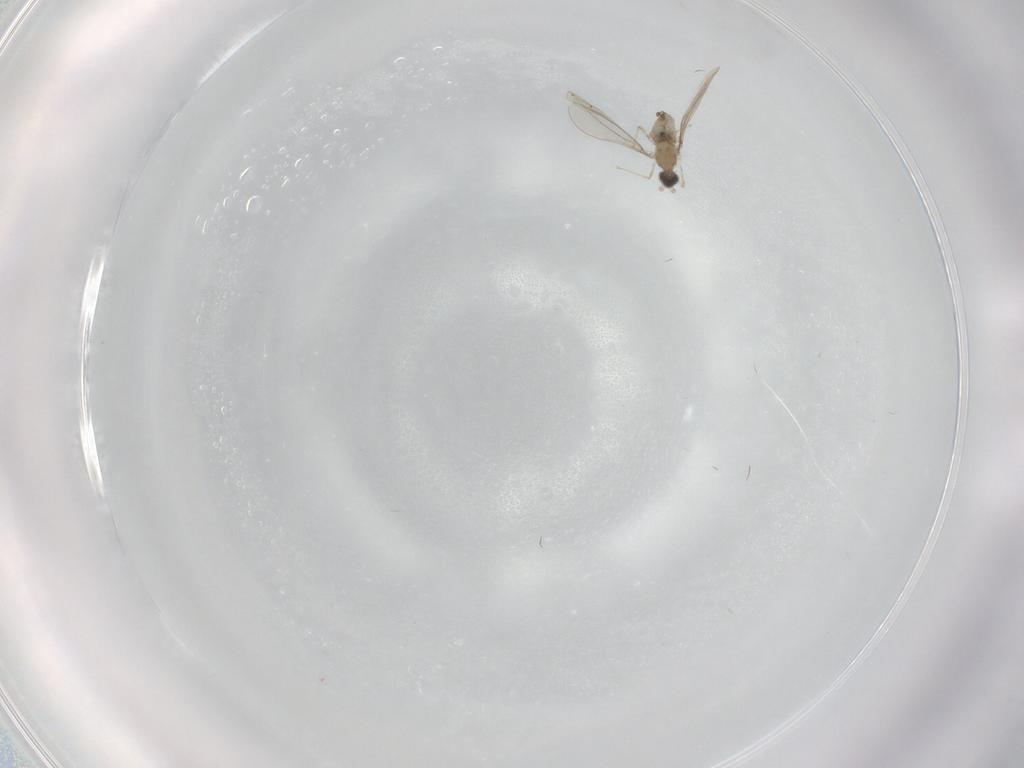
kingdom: Animalia
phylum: Arthropoda
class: Insecta
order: Diptera
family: Cecidomyiidae
